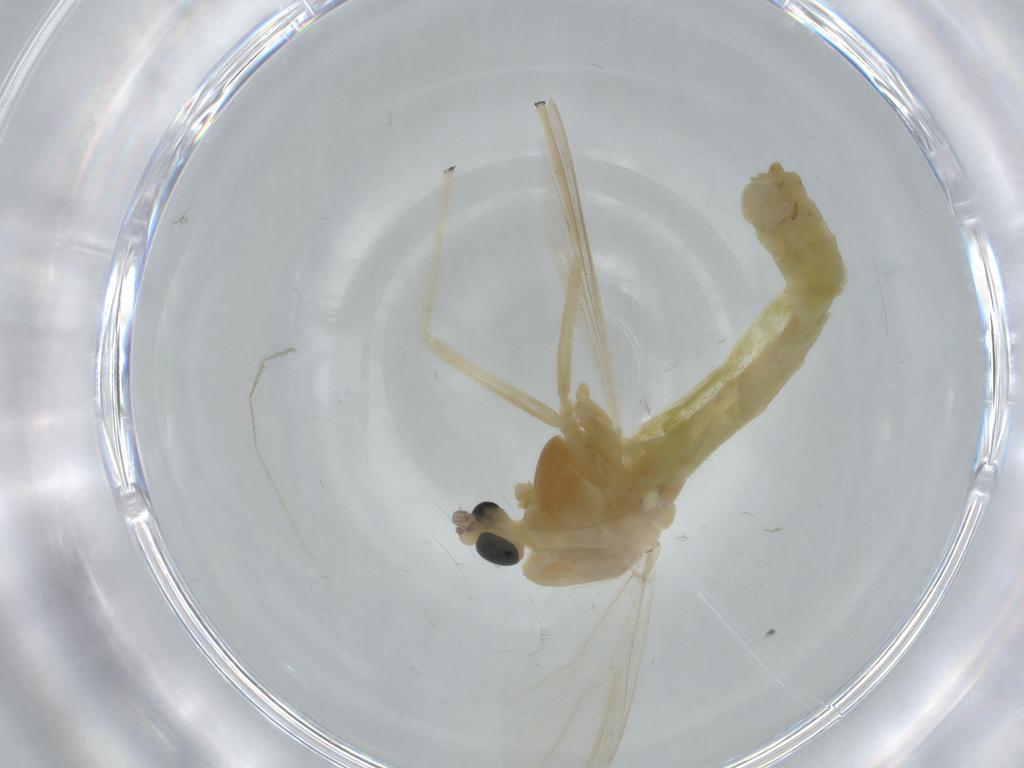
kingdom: Animalia
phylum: Arthropoda
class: Insecta
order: Diptera
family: Chironomidae
